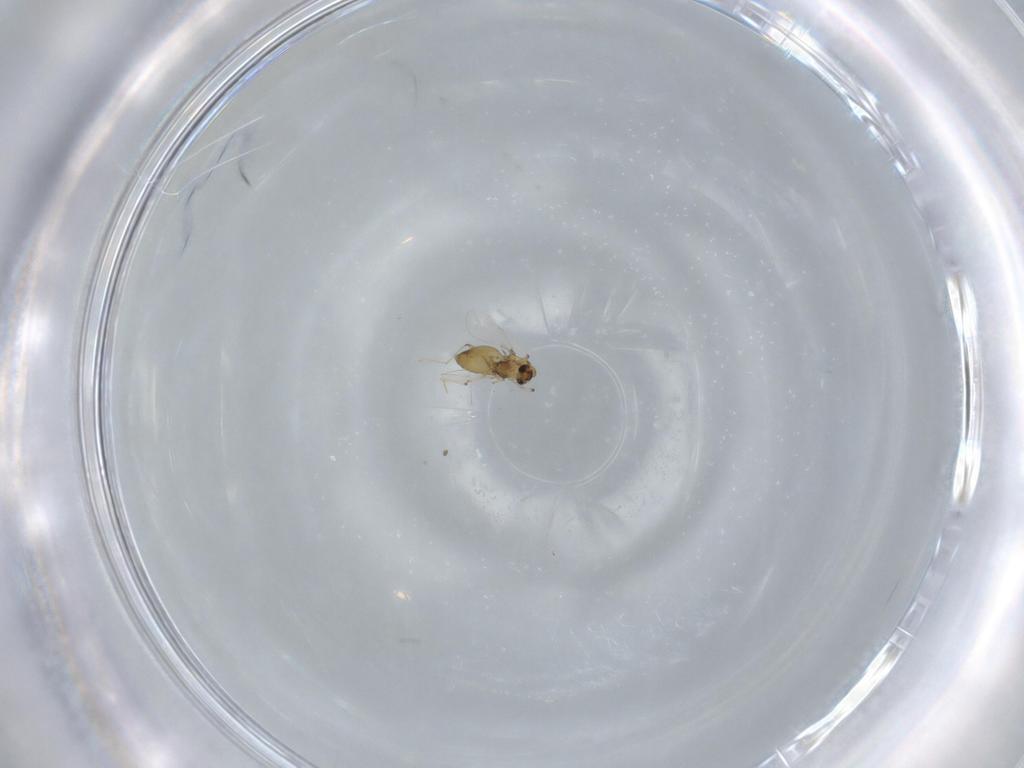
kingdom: Animalia
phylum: Arthropoda
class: Insecta
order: Diptera
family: Chironomidae
